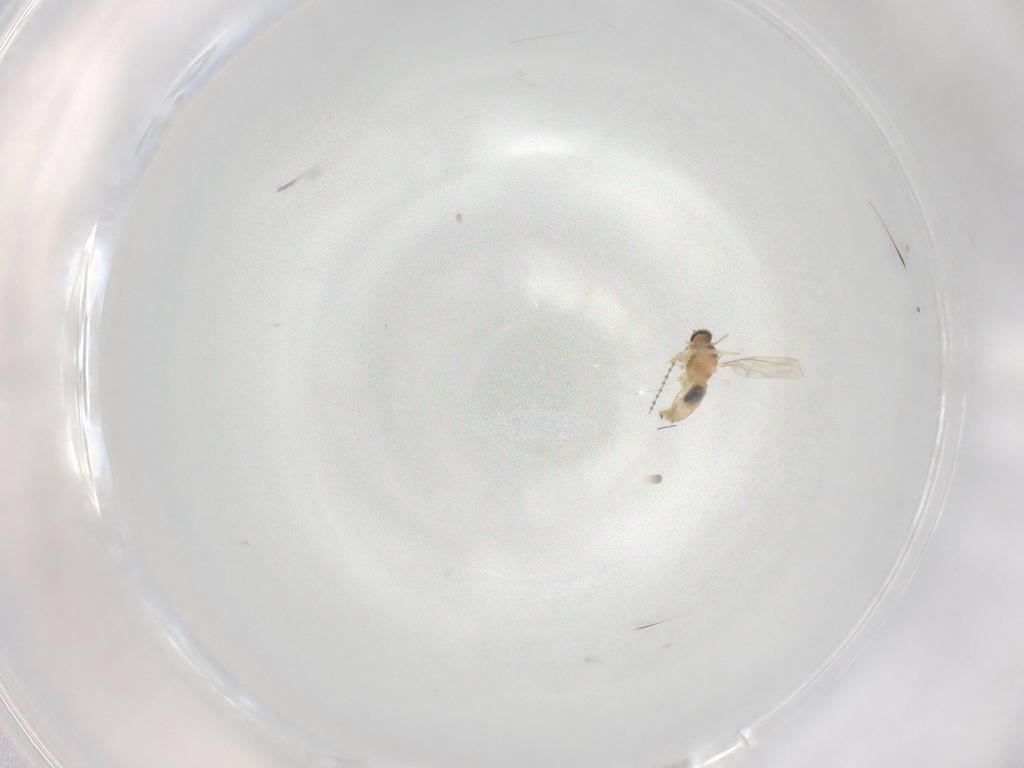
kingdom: Animalia
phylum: Arthropoda
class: Insecta
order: Diptera
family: Cecidomyiidae
